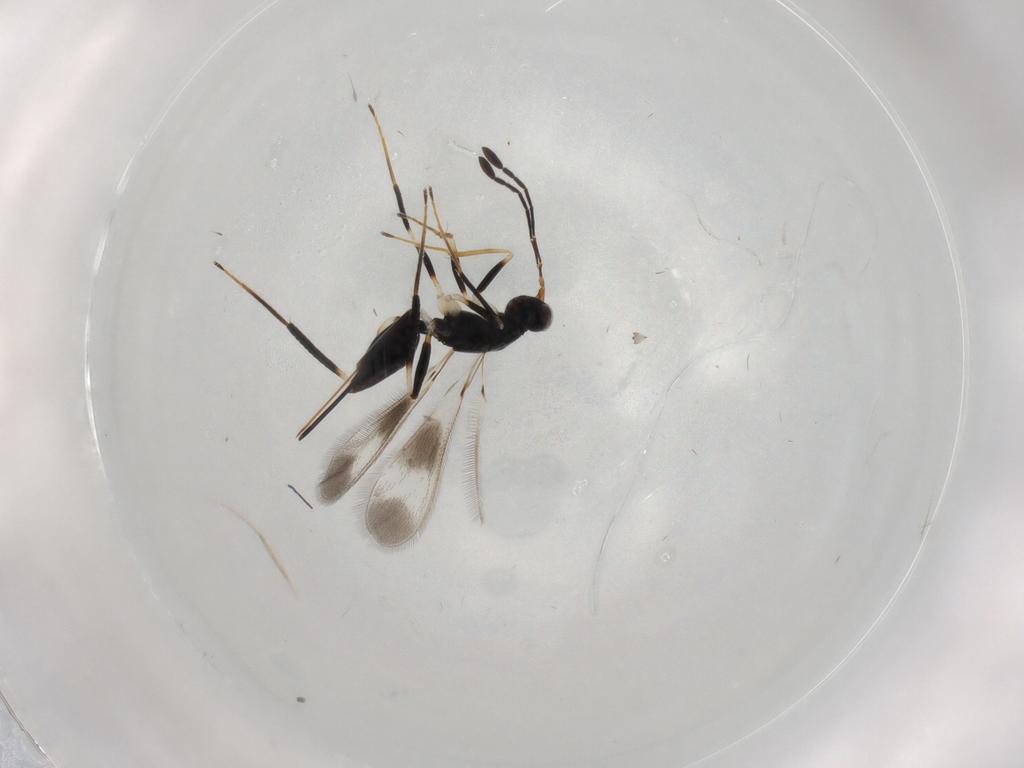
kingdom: Animalia
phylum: Arthropoda
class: Insecta
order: Hymenoptera
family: Mymaridae
